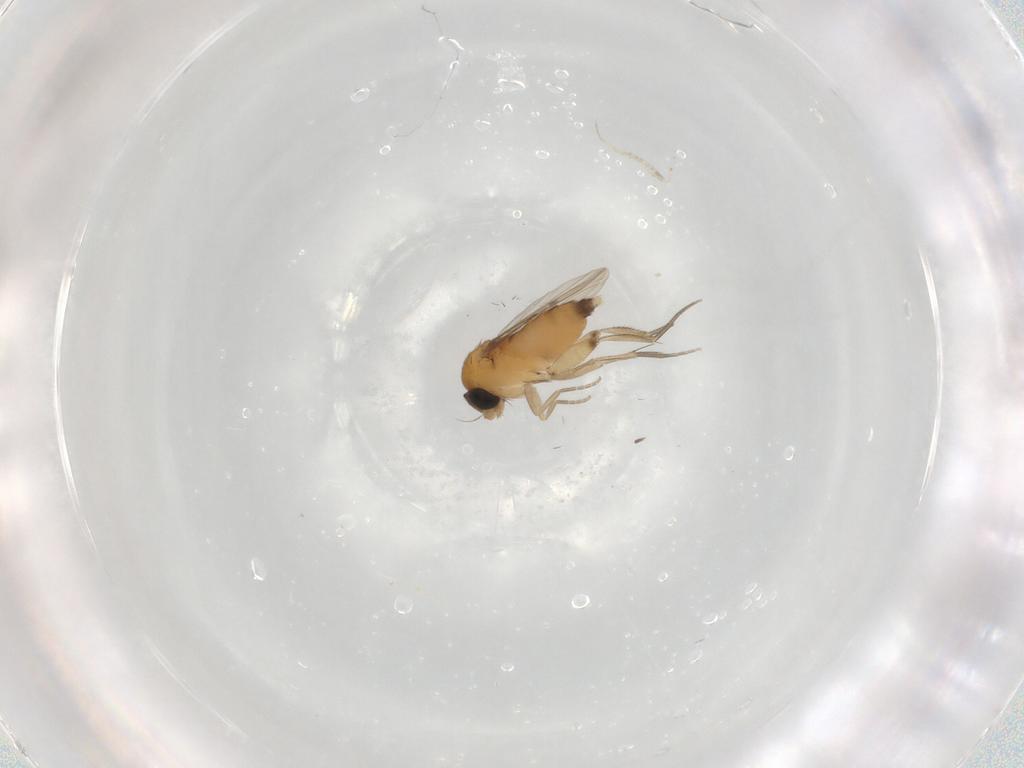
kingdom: Animalia
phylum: Arthropoda
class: Insecta
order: Diptera
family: Phoridae
